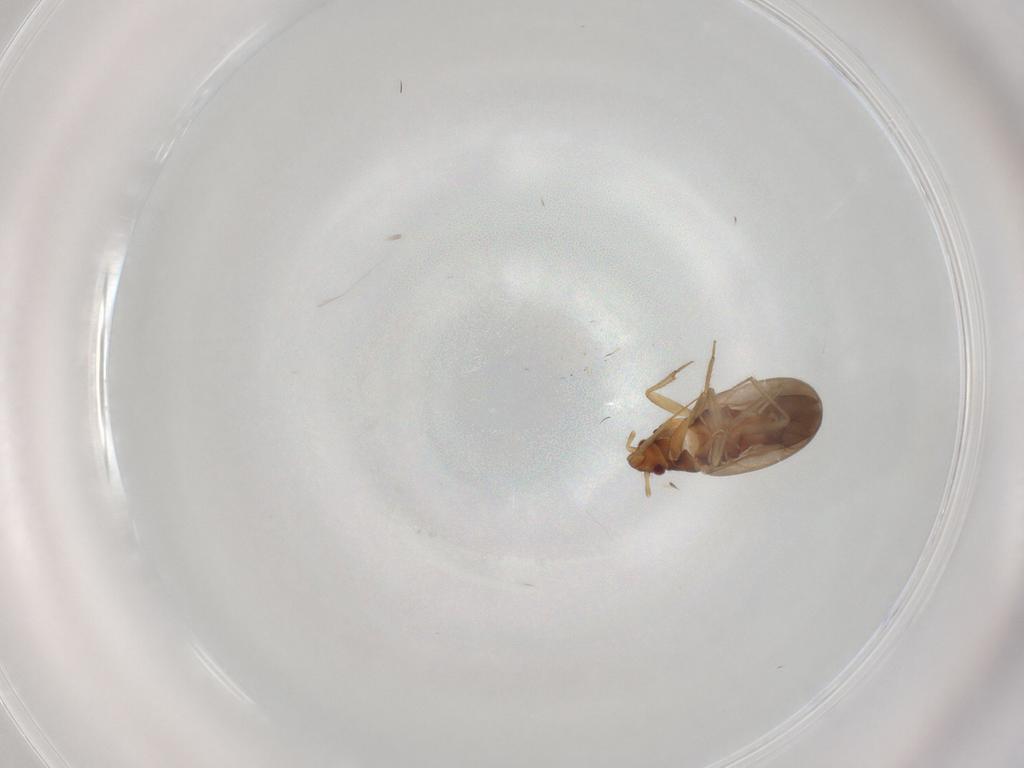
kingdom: Animalia
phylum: Arthropoda
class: Insecta
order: Hemiptera
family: Ceratocombidae
